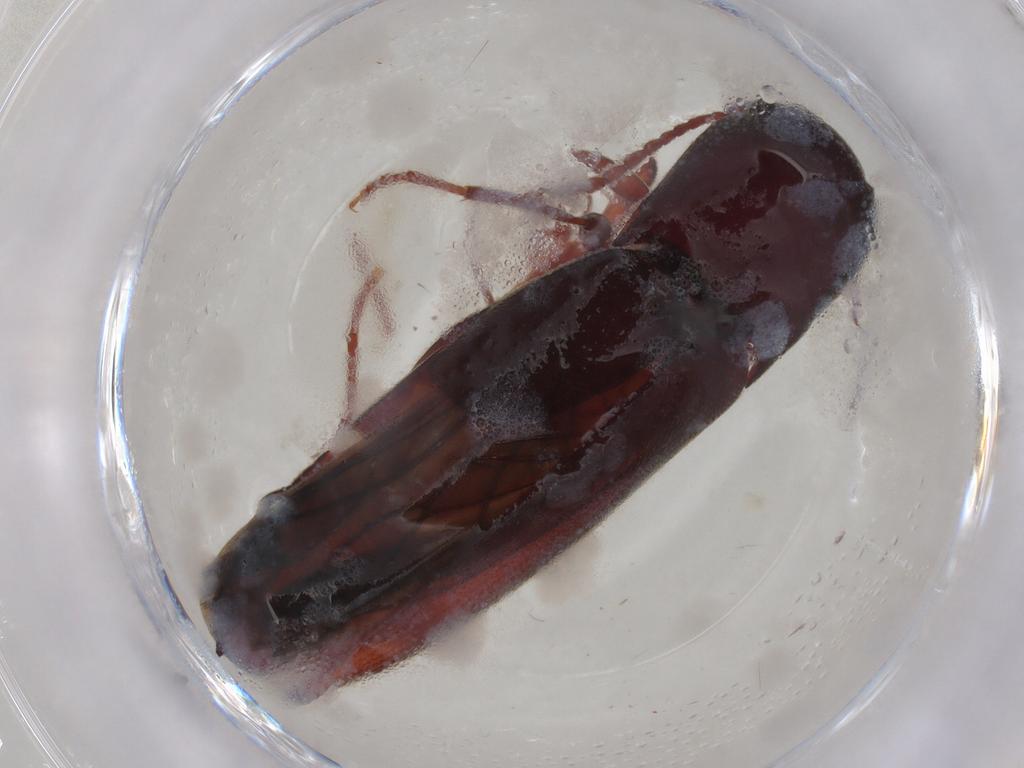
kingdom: Animalia
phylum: Arthropoda
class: Insecta
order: Coleoptera
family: Eucnemidae
